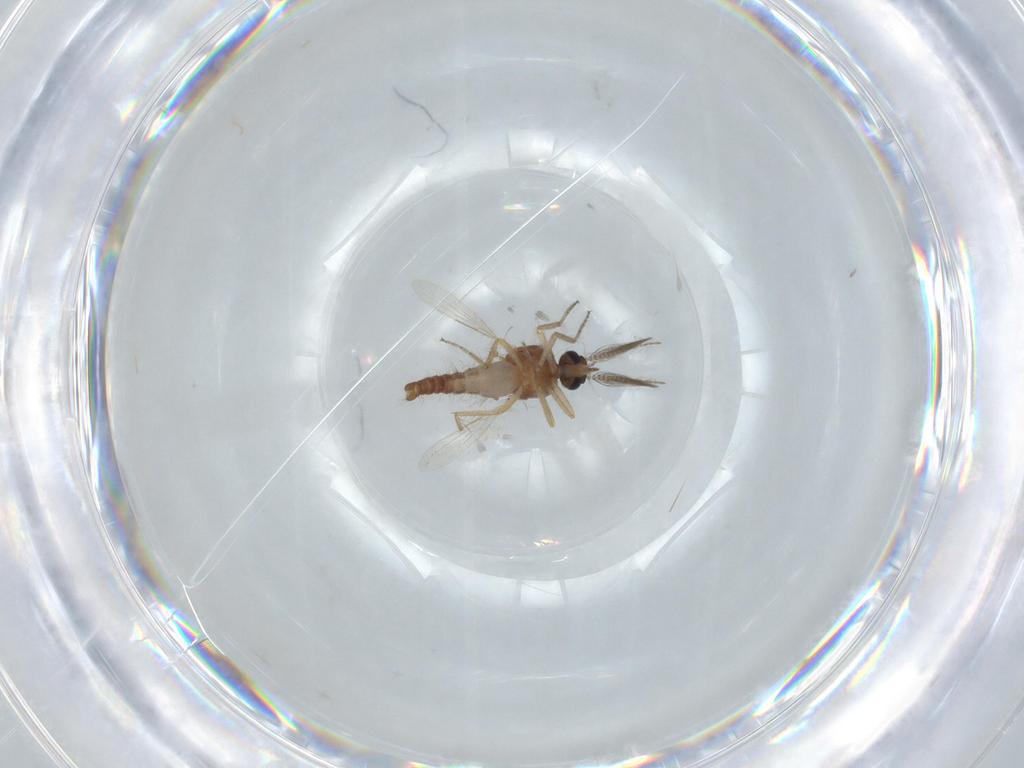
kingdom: Animalia
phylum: Arthropoda
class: Insecta
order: Diptera
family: Ceratopogonidae
